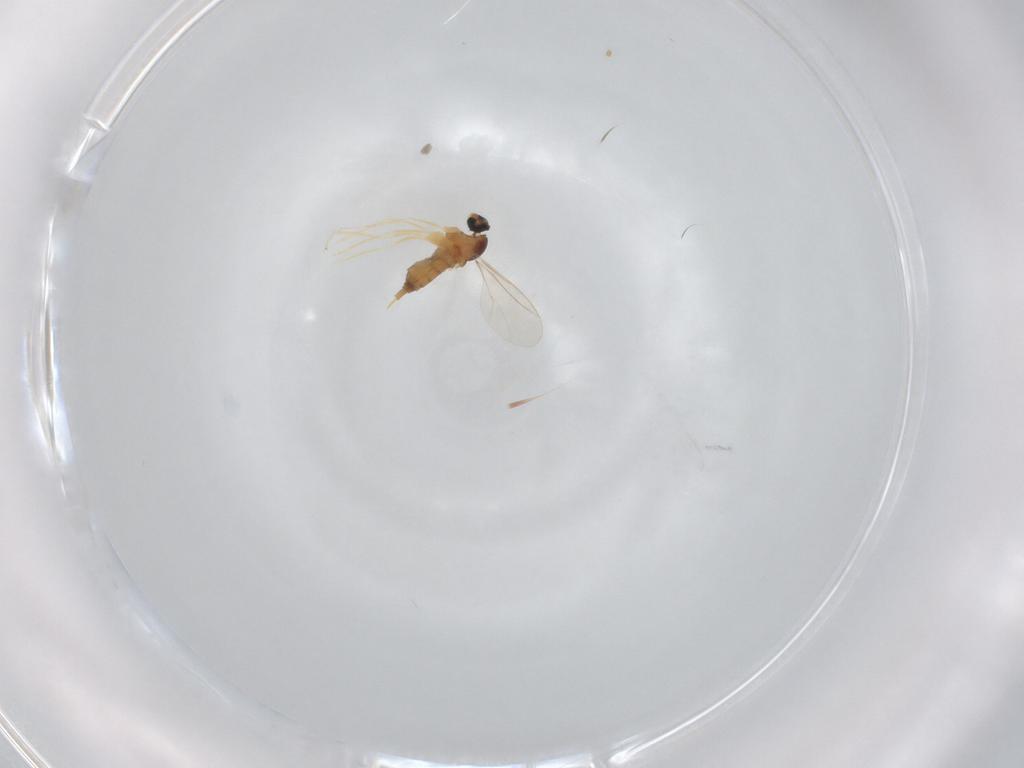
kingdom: Animalia
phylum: Arthropoda
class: Insecta
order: Diptera
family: Cecidomyiidae
